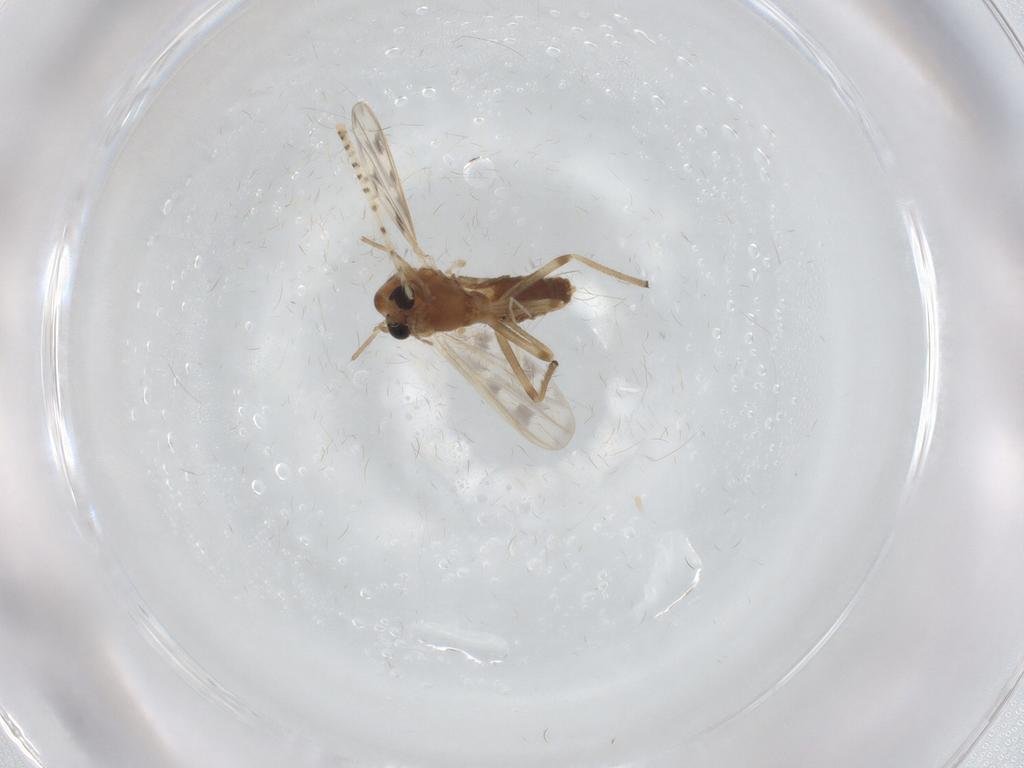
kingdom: Animalia
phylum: Arthropoda
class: Insecta
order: Diptera
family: Chironomidae
